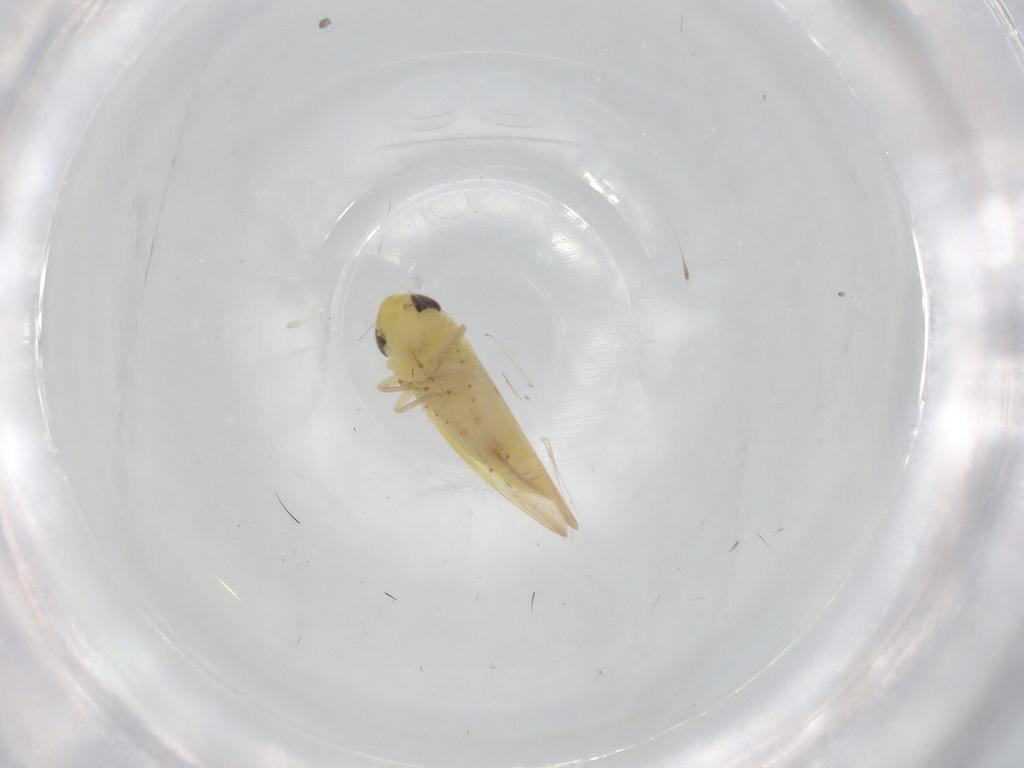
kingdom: Animalia
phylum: Arthropoda
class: Insecta
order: Hemiptera
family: Cicadellidae
